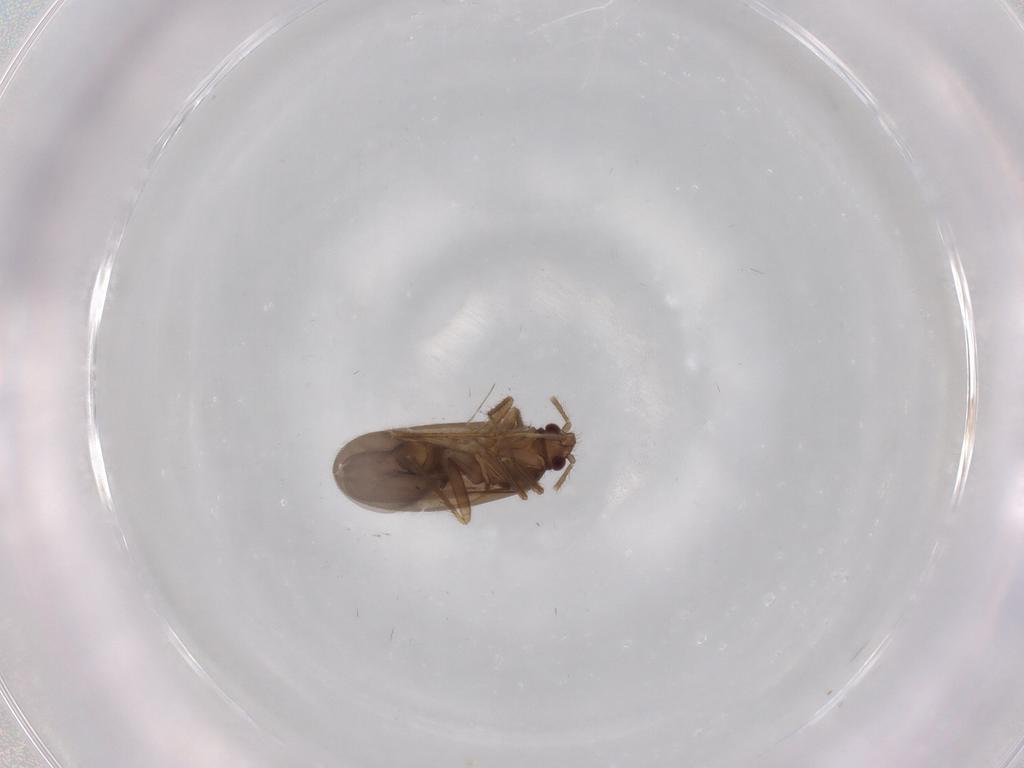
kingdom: Animalia
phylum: Arthropoda
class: Insecta
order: Hemiptera
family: Ceratocombidae
